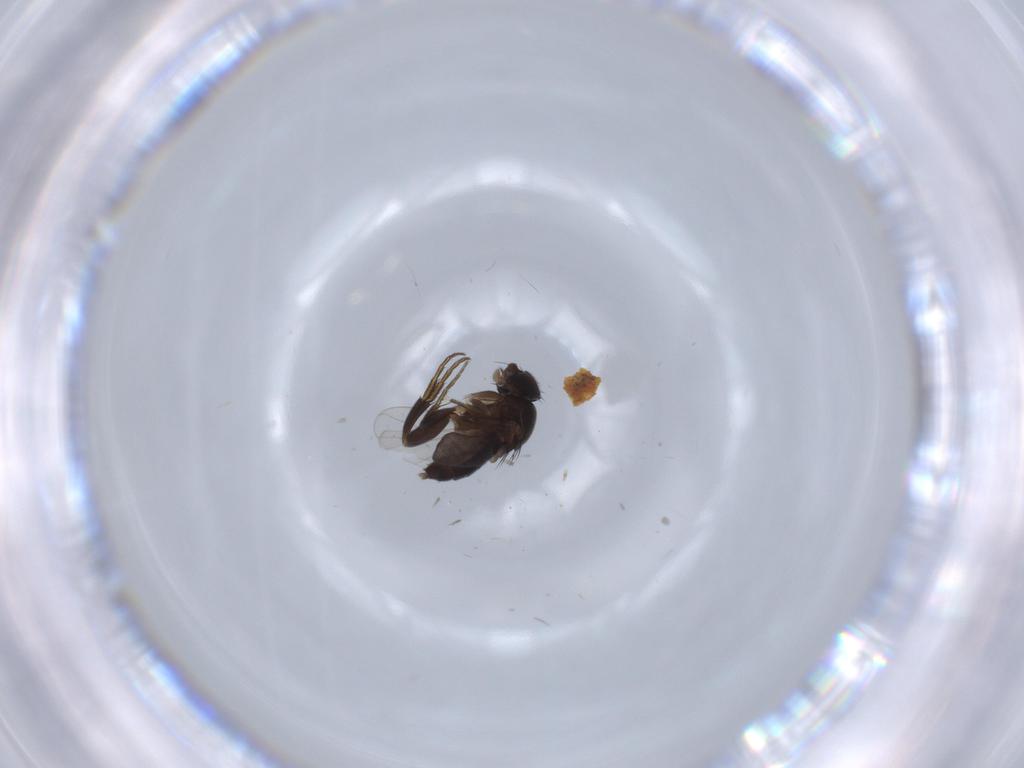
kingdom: Animalia
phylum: Arthropoda
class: Insecta
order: Diptera
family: Phoridae
